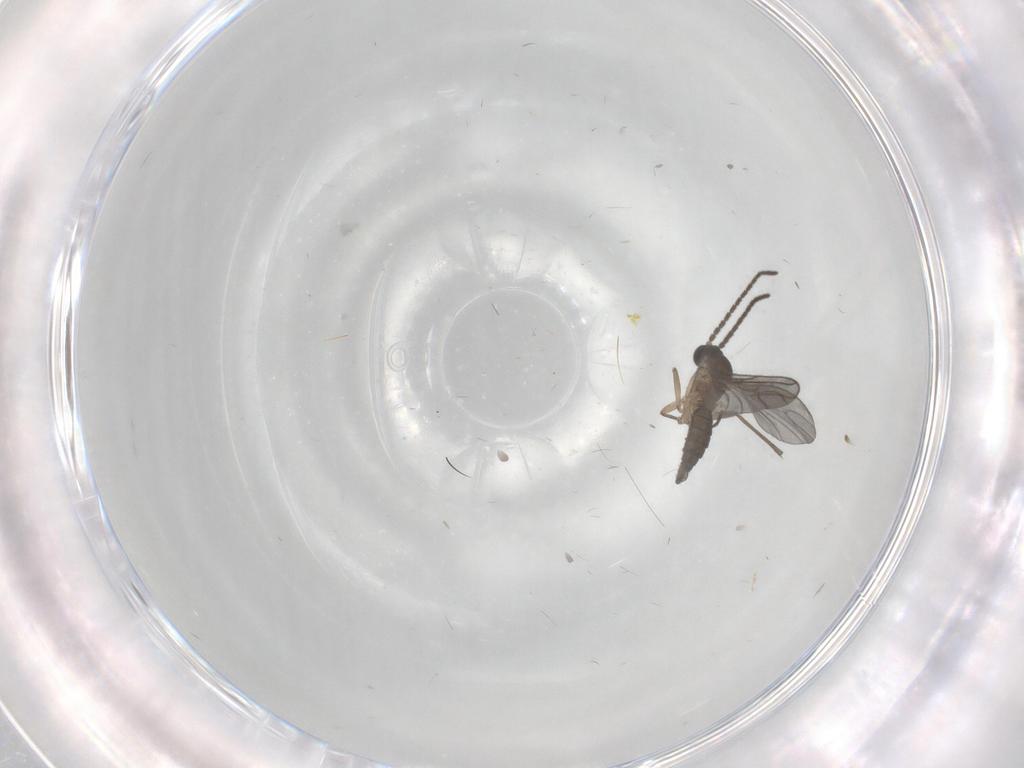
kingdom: Animalia
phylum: Arthropoda
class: Insecta
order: Diptera
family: Sciaridae
